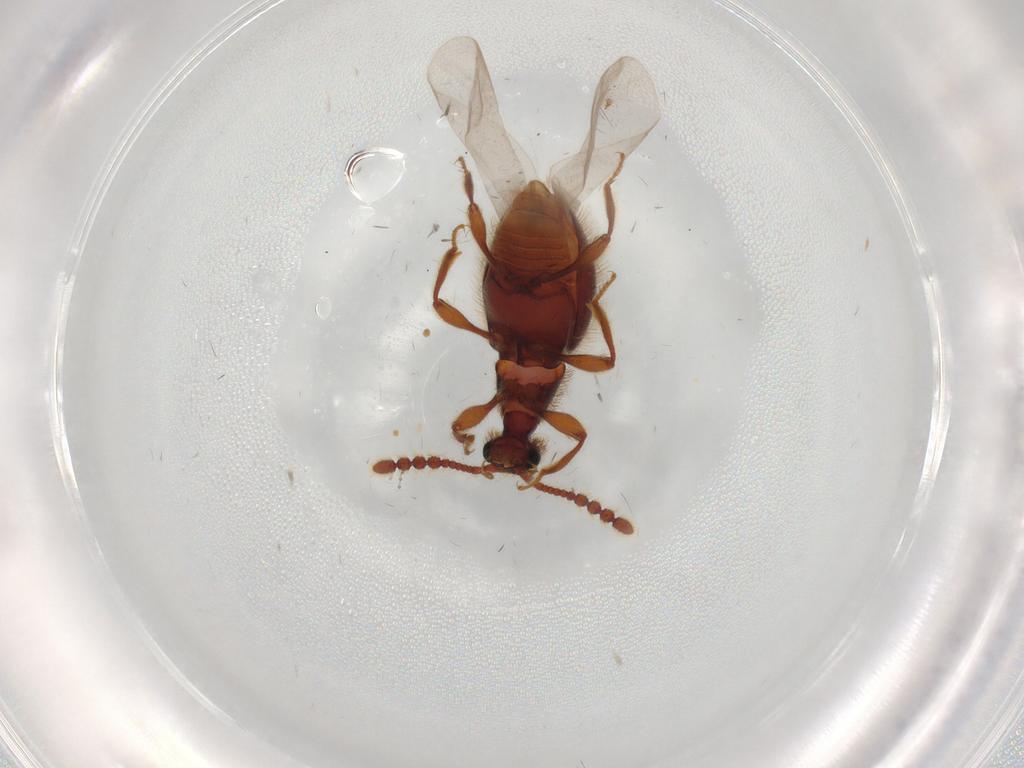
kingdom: Animalia
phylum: Arthropoda
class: Insecta
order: Coleoptera
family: Staphylinidae
